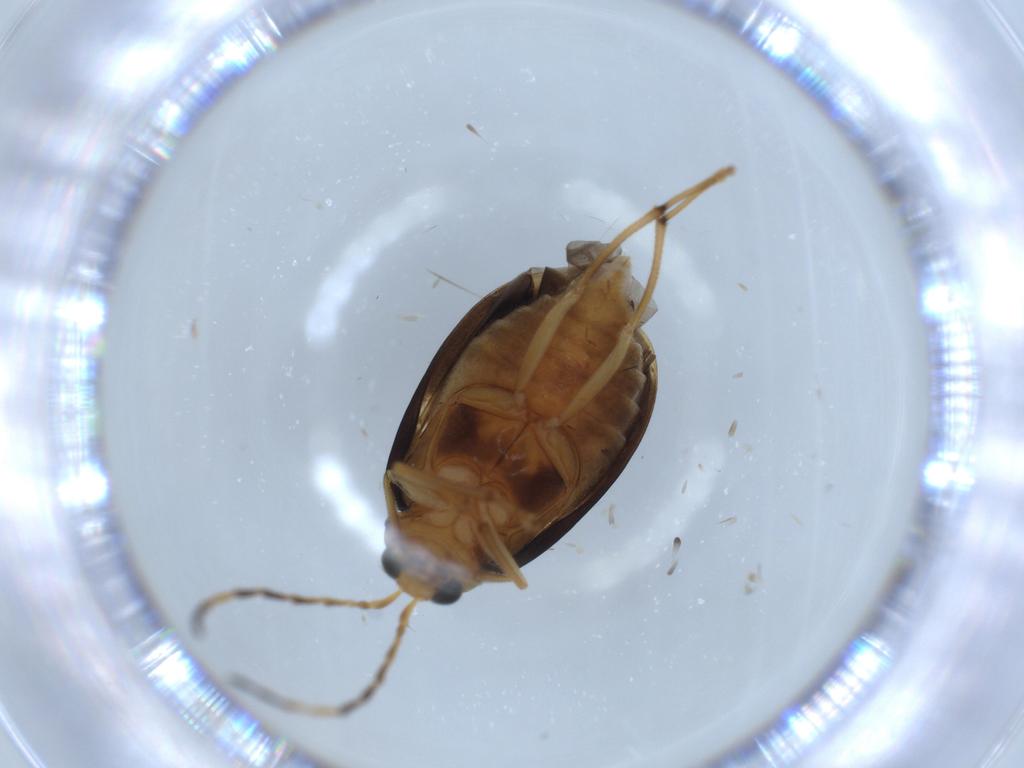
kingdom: Animalia
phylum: Arthropoda
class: Insecta
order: Coleoptera
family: Chrysomelidae
